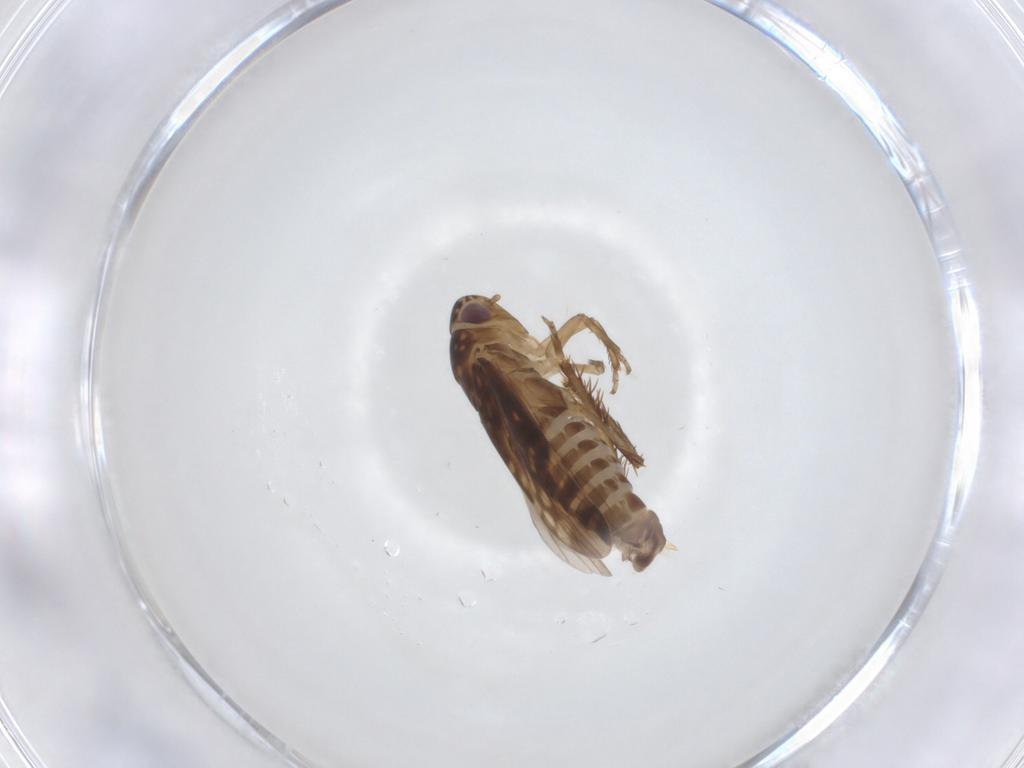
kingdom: Animalia
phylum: Arthropoda
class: Insecta
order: Hemiptera
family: Cicadellidae
